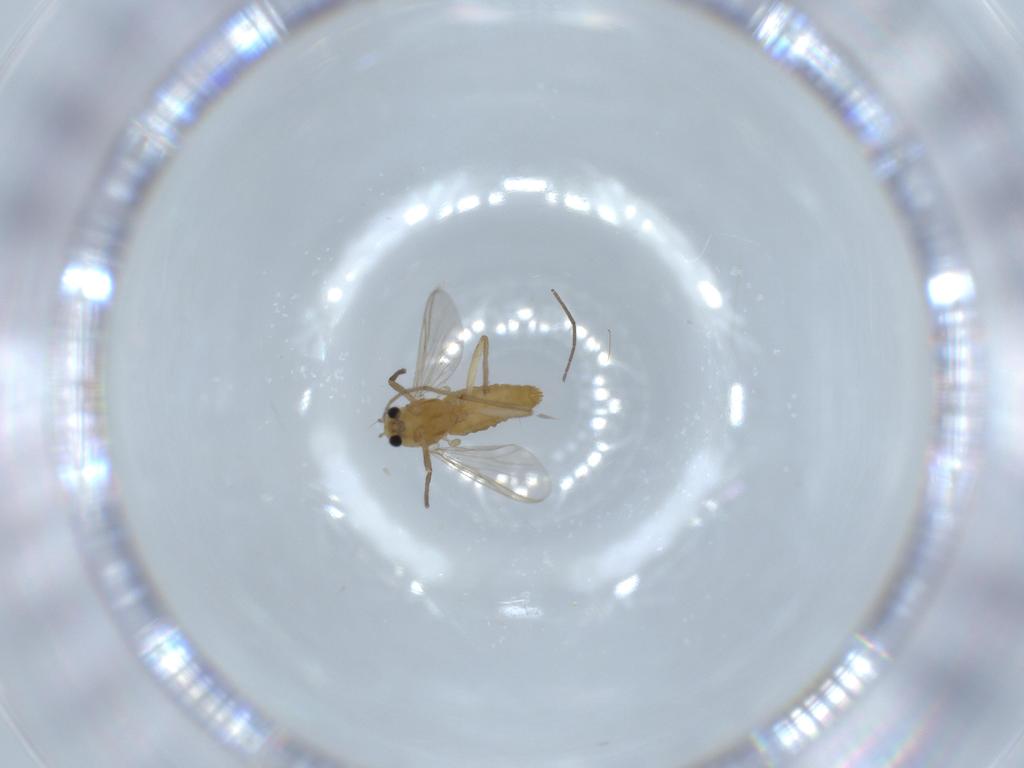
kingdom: Animalia
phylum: Arthropoda
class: Insecta
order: Diptera
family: Chironomidae
